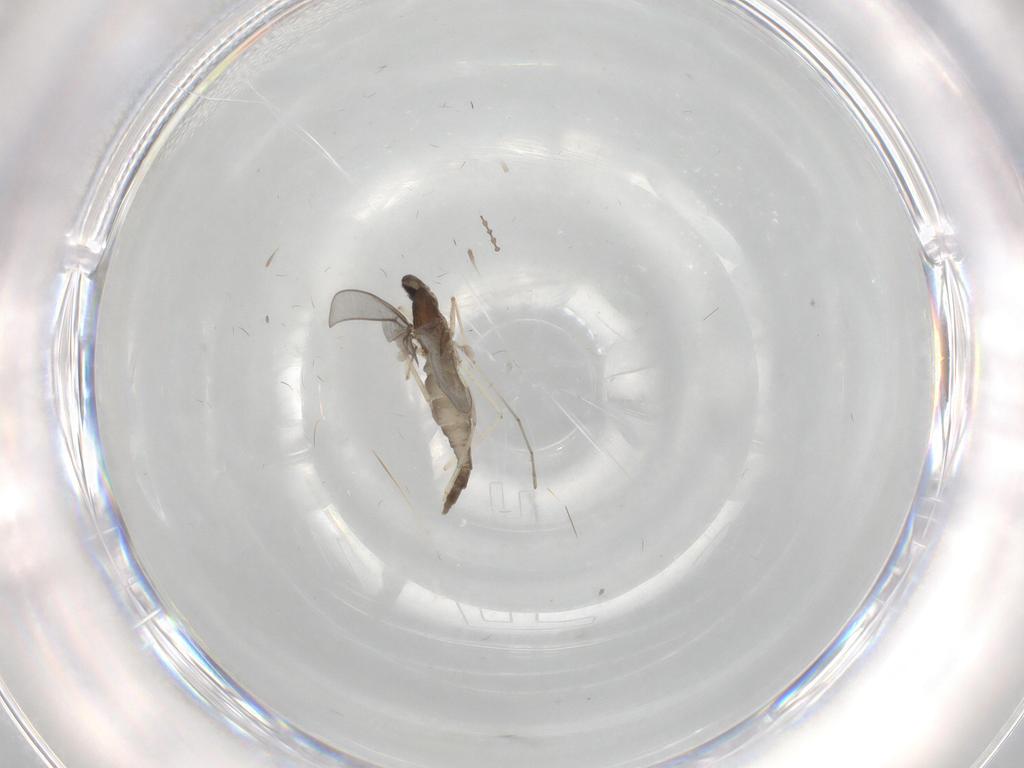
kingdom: Animalia
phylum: Arthropoda
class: Insecta
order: Diptera
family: Cecidomyiidae
